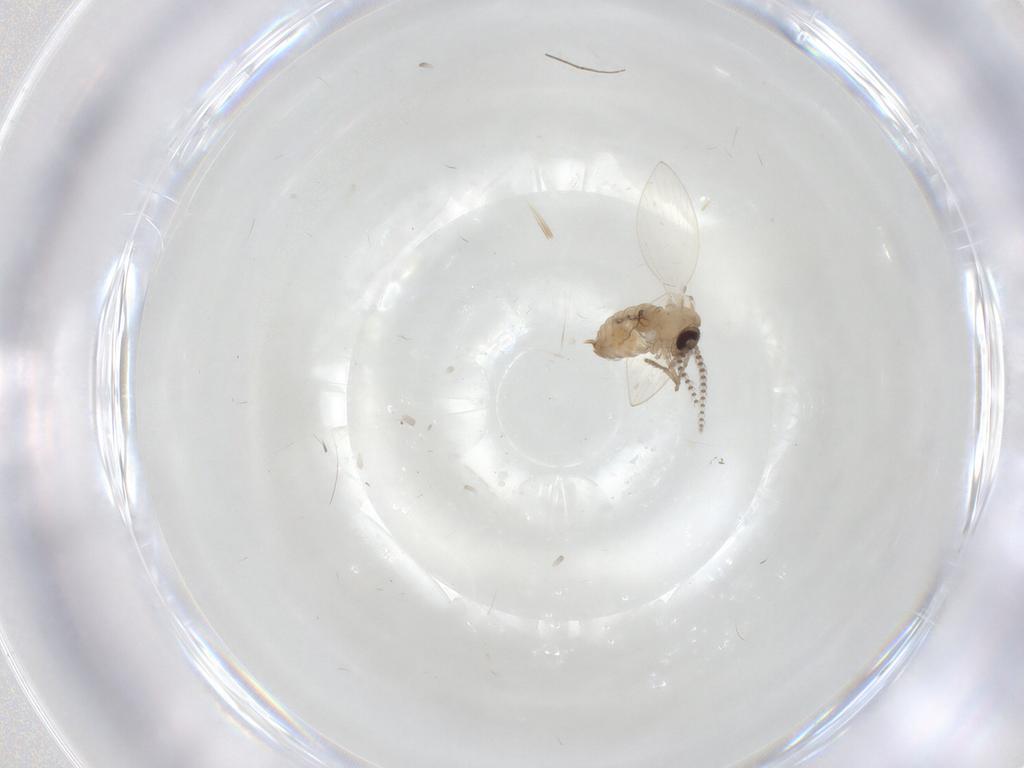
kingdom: Animalia
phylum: Arthropoda
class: Insecta
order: Diptera
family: Psychodidae
